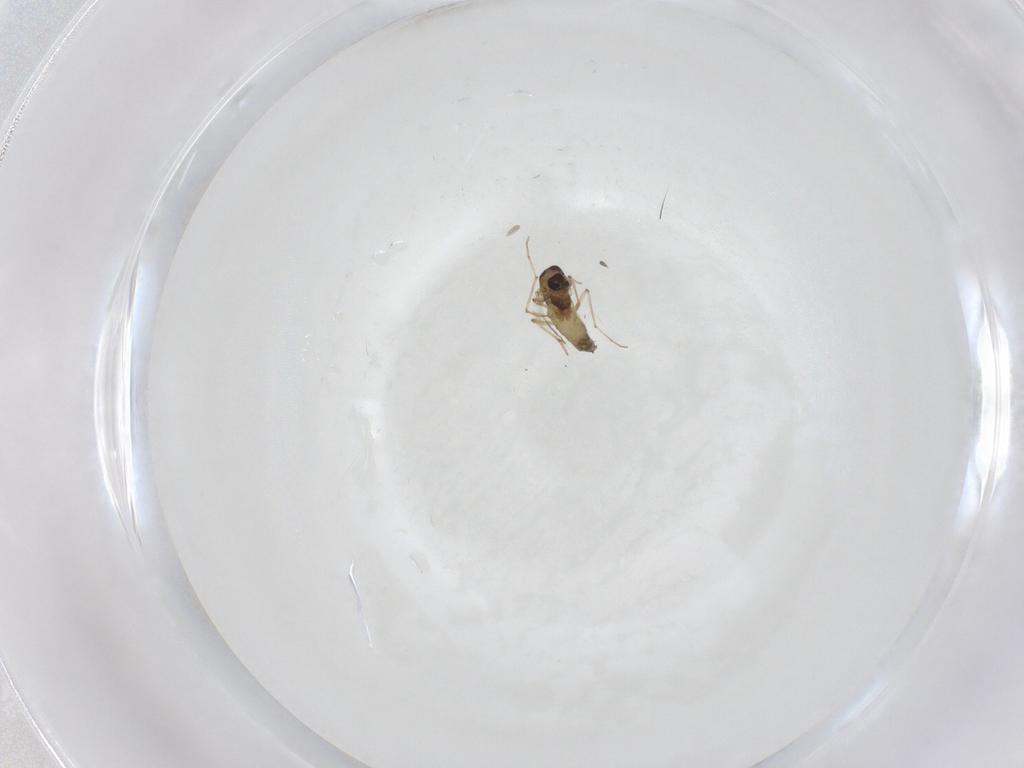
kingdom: Animalia
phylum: Arthropoda
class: Insecta
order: Diptera
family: Chironomidae
